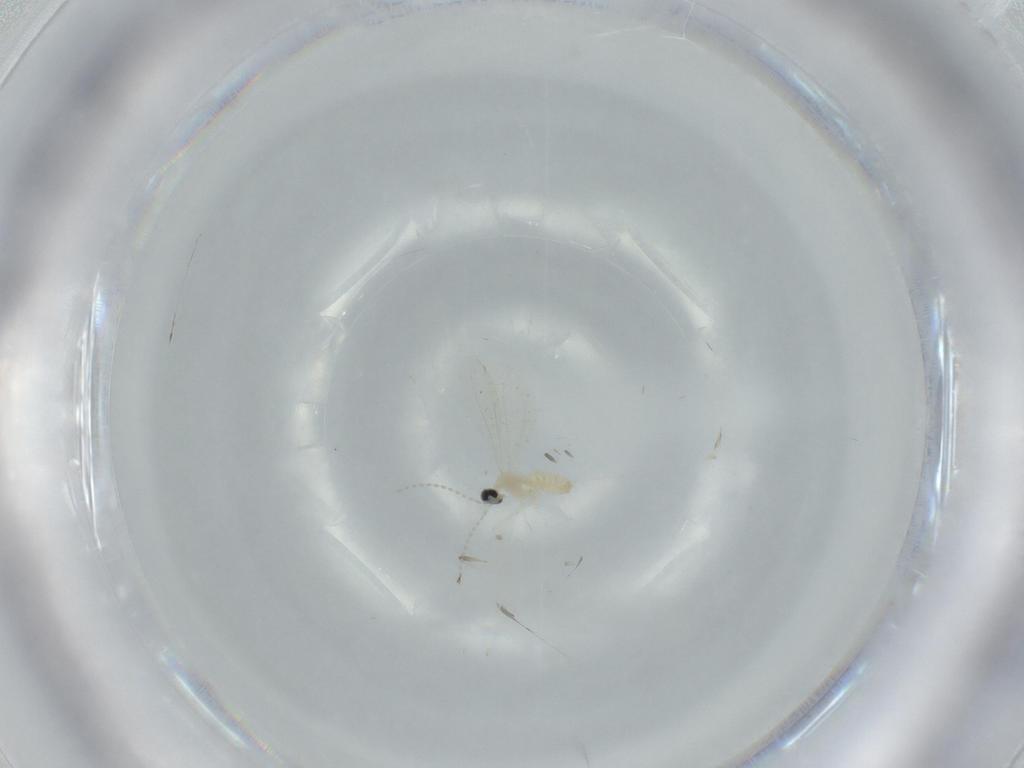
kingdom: Animalia
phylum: Arthropoda
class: Insecta
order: Diptera
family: Cecidomyiidae
